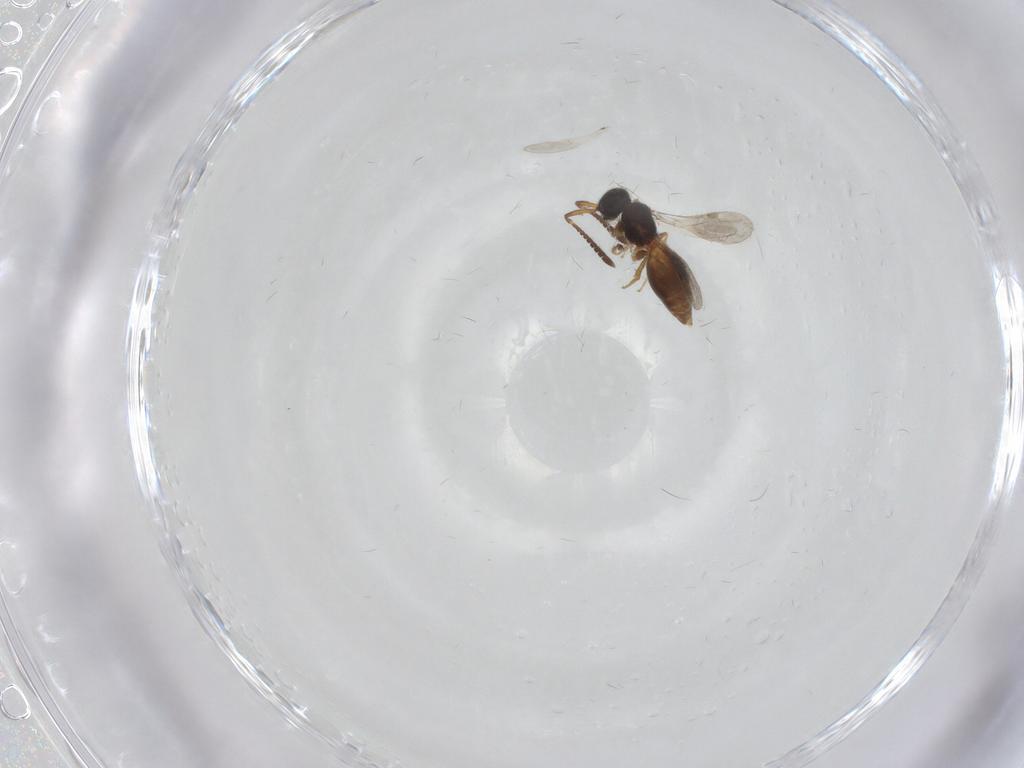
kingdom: Animalia
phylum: Arthropoda
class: Insecta
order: Hymenoptera
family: Megaspilidae
